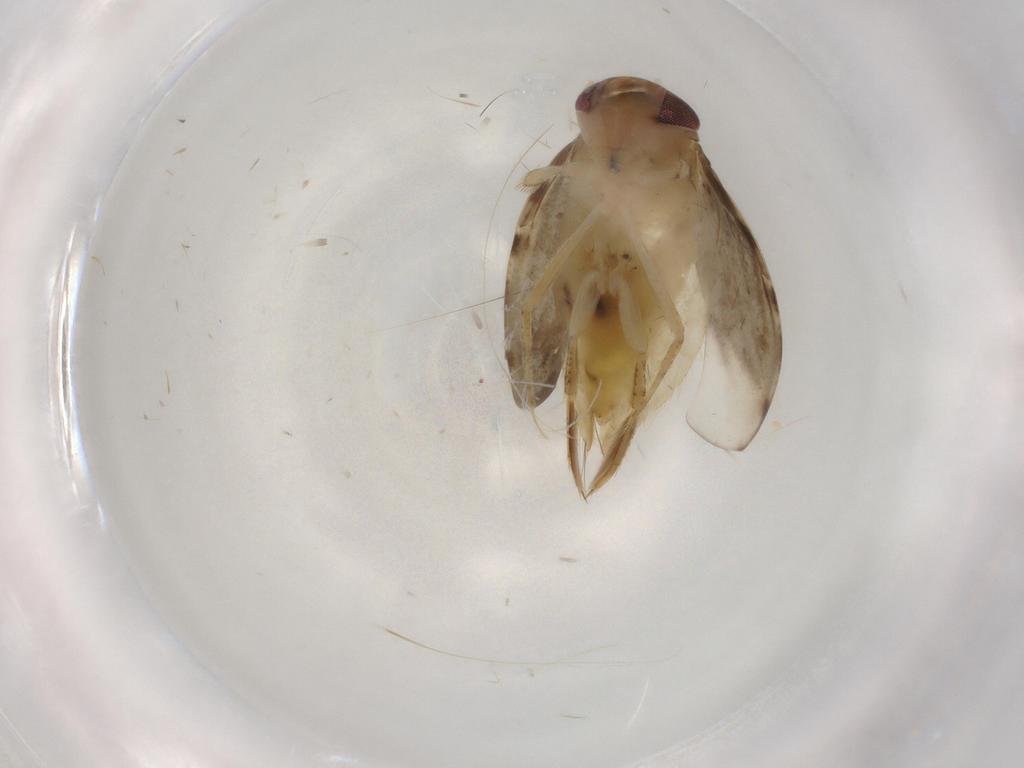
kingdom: Animalia
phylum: Arthropoda
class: Insecta
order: Hemiptera
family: Corixidae
